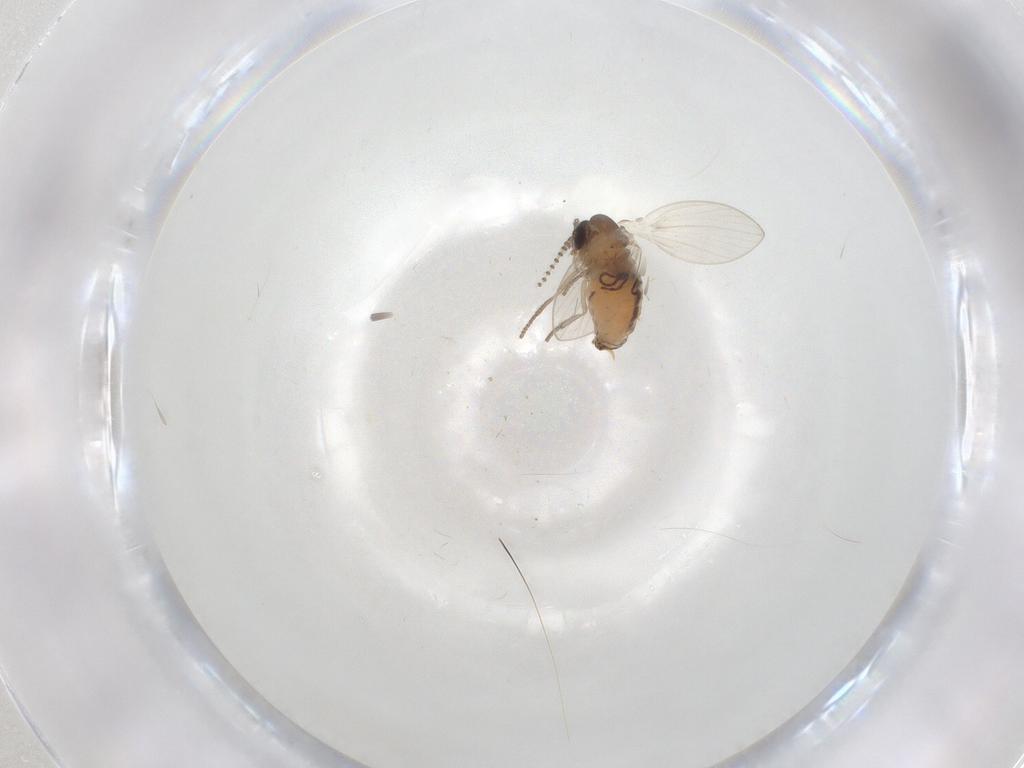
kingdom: Animalia
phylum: Arthropoda
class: Insecta
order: Diptera
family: Psychodidae
